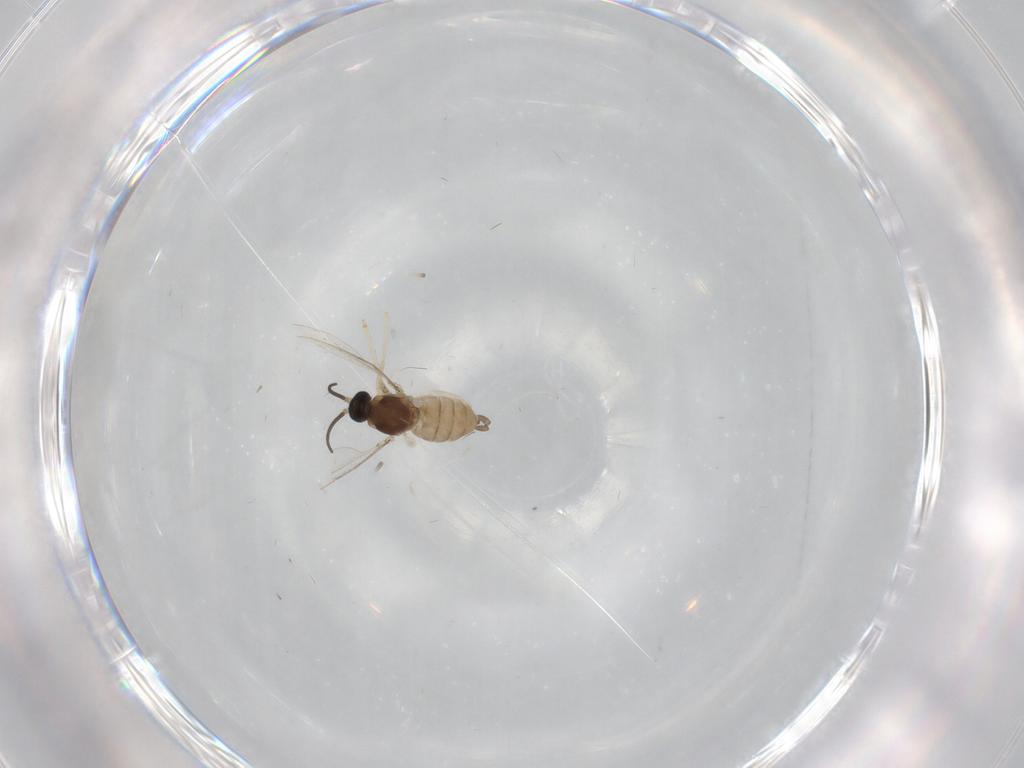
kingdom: Animalia
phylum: Arthropoda
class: Insecta
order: Diptera
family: Cecidomyiidae
